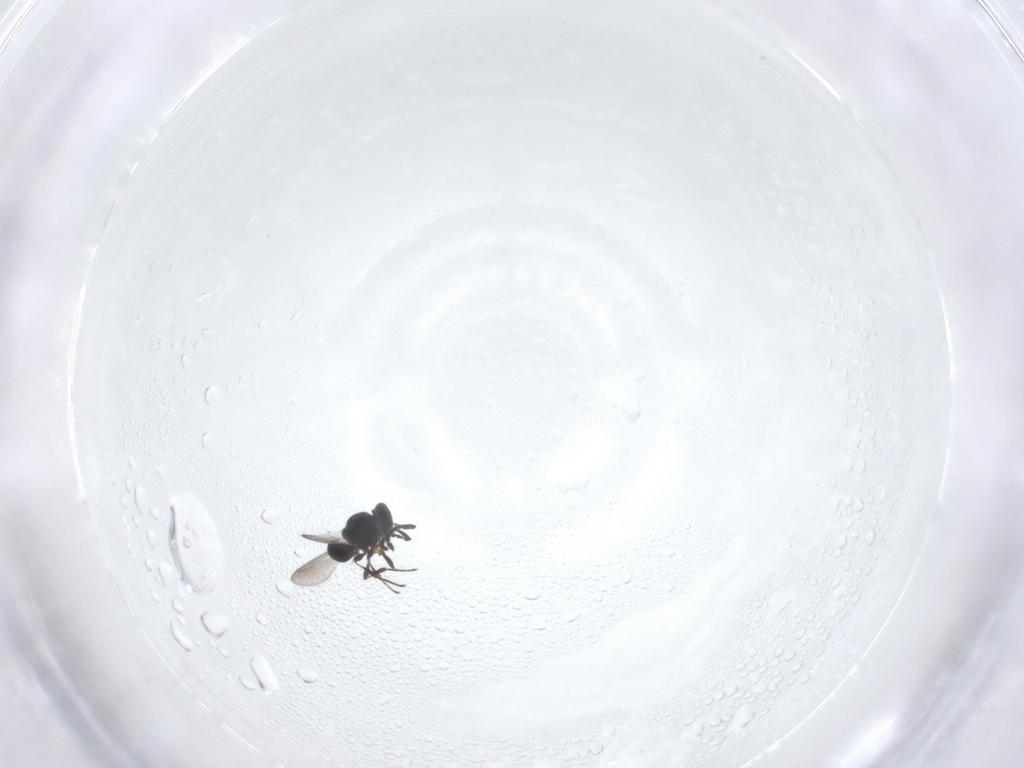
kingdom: Animalia
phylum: Arthropoda
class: Insecta
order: Hymenoptera
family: Platygastridae
